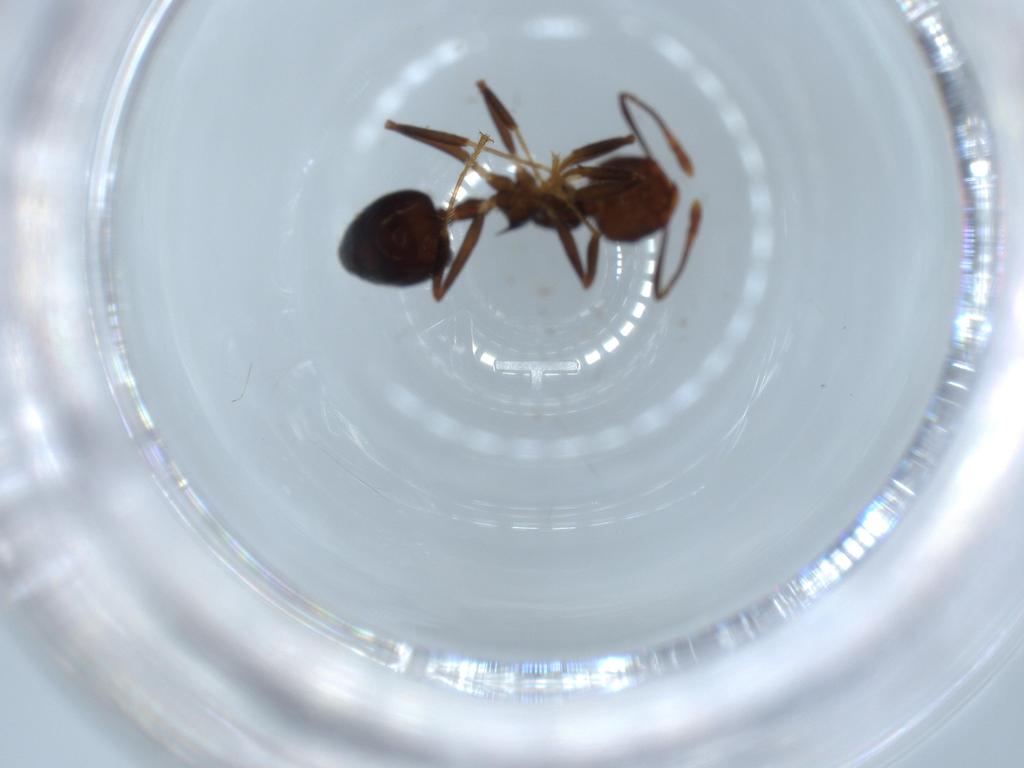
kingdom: Animalia
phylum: Arthropoda
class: Insecta
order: Hymenoptera
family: Formicidae
